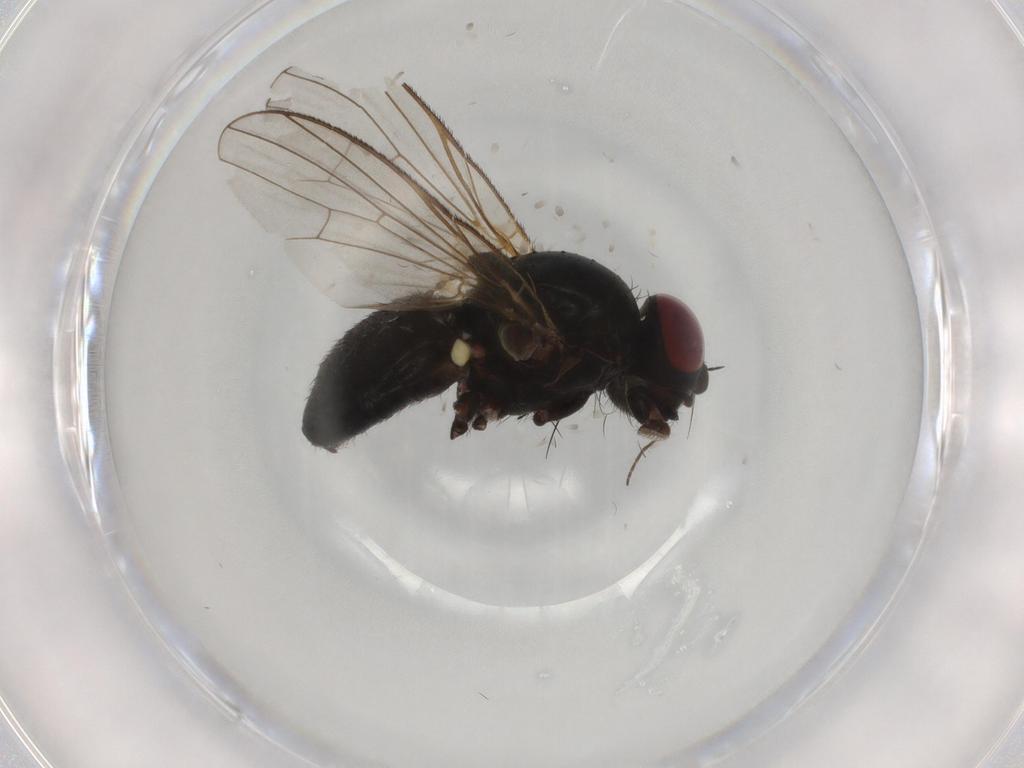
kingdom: Animalia
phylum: Arthropoda
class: Insecta
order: Diptera
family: Fannia
